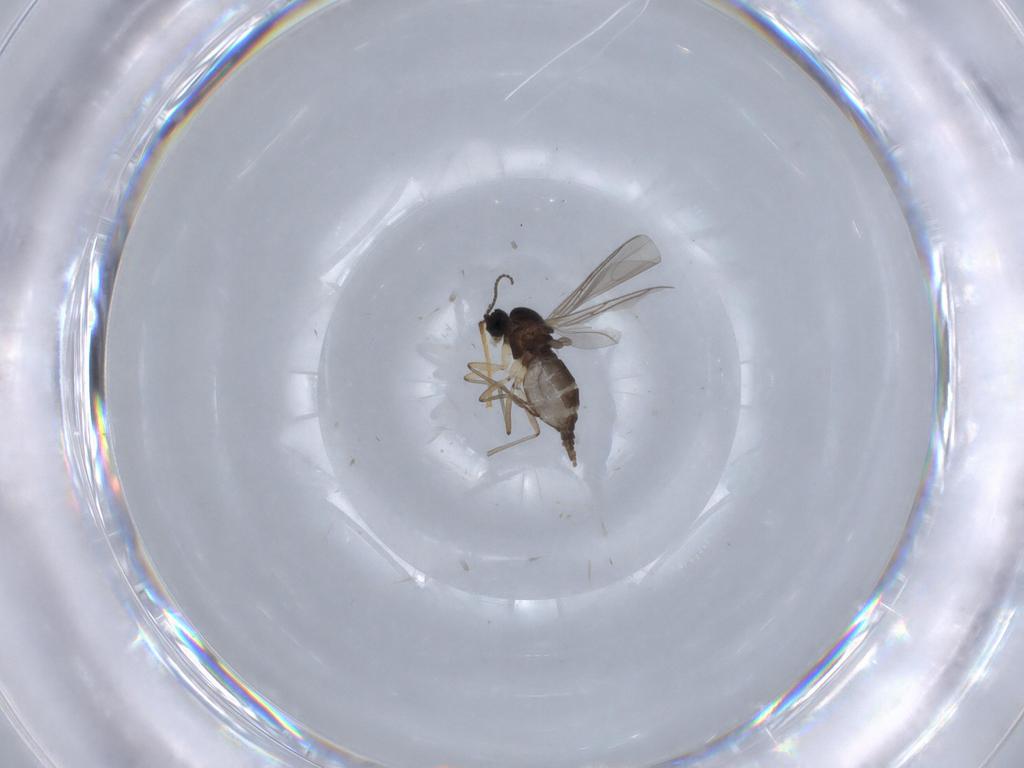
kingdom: Animalia
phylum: Arthropoda
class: Insecta
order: Diptera
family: Sciaridae
